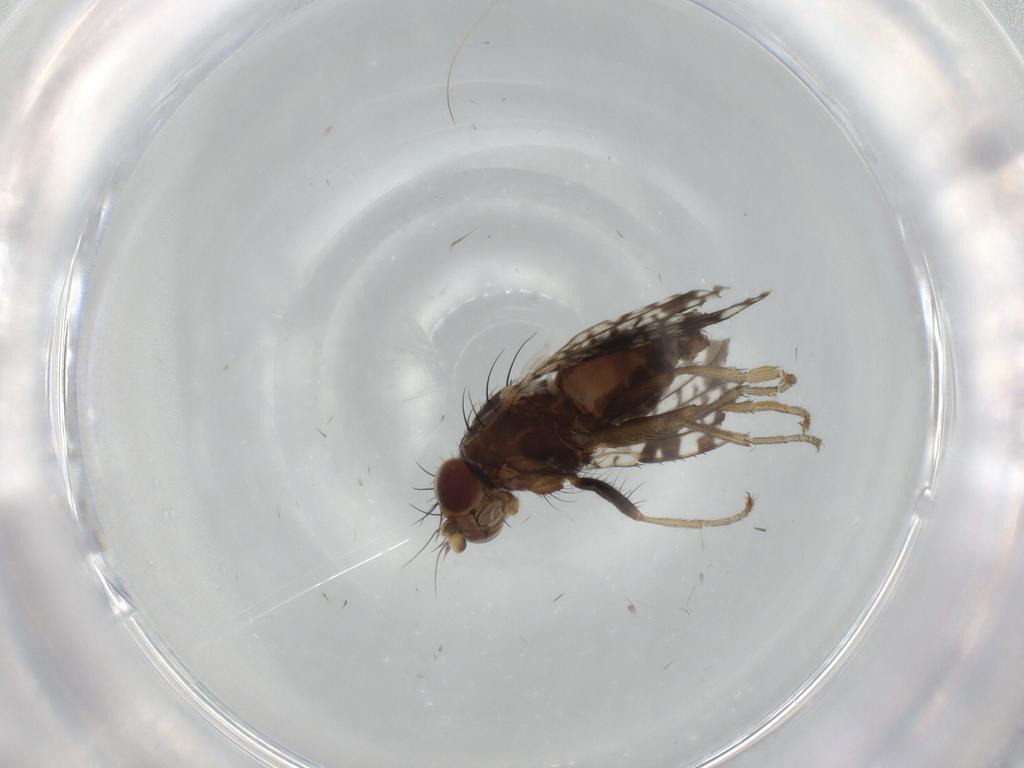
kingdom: Animalia
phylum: Arthropoda
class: Insecta
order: Diptera
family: Tephritidae
